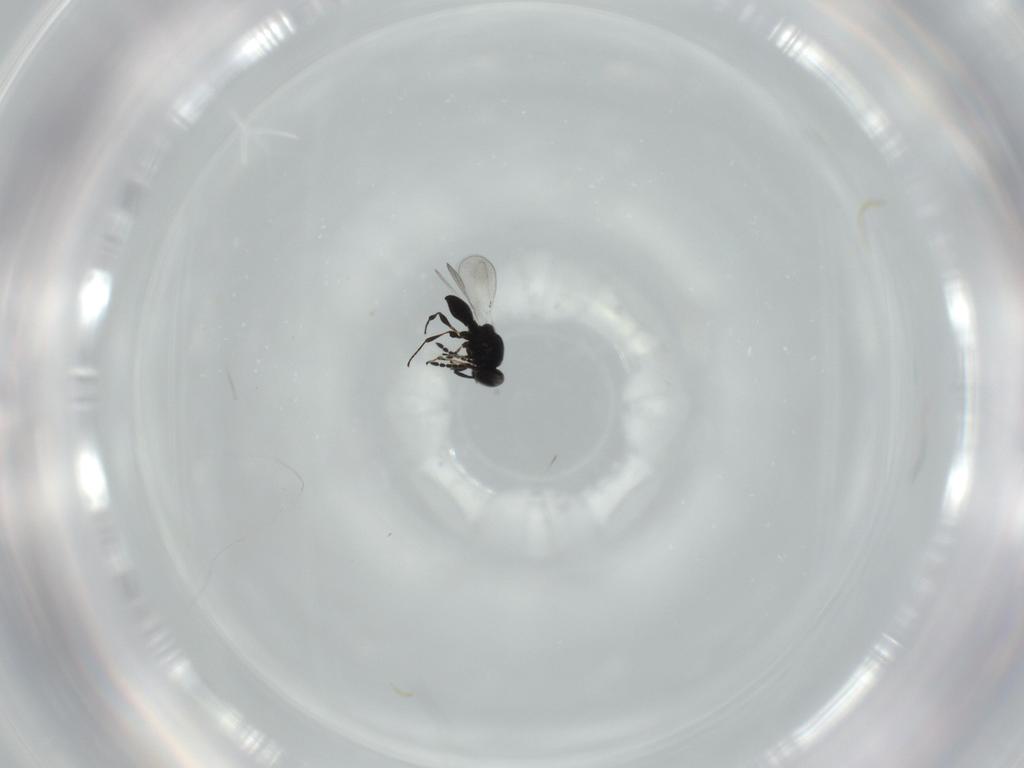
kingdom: Animalia
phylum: Arthropoda
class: Insecta
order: Hymenoptera
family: Platygastridae
